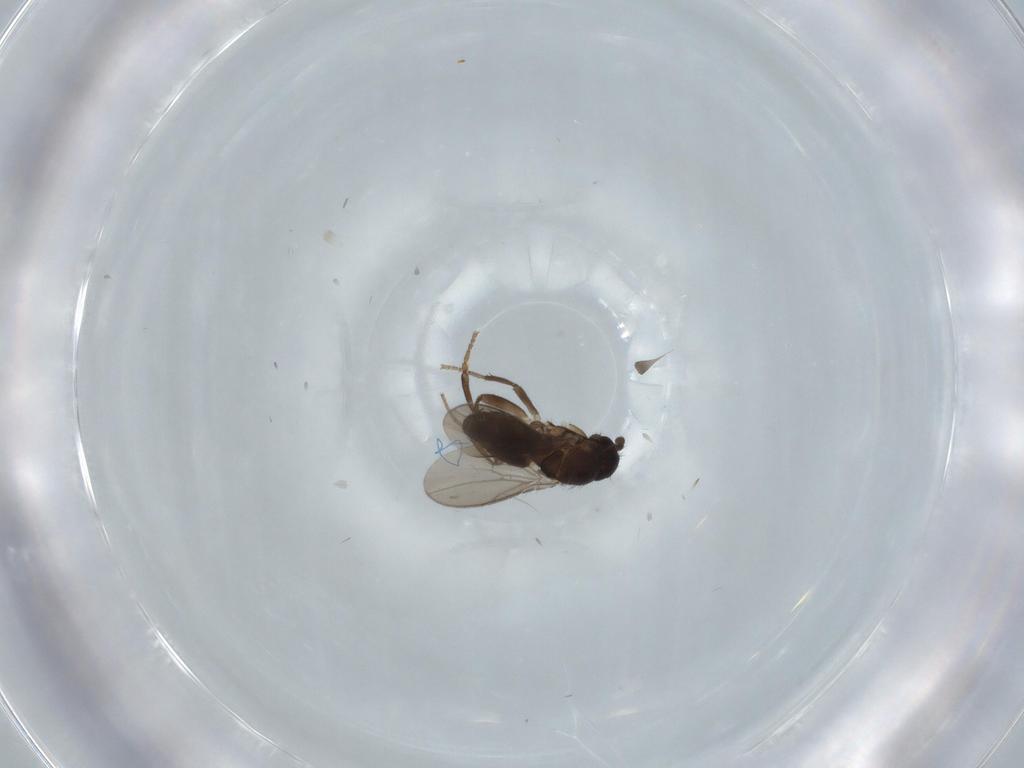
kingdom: Animalia
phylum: Arthropoda
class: Insecta
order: Diptera
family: Sphaeroceridae
